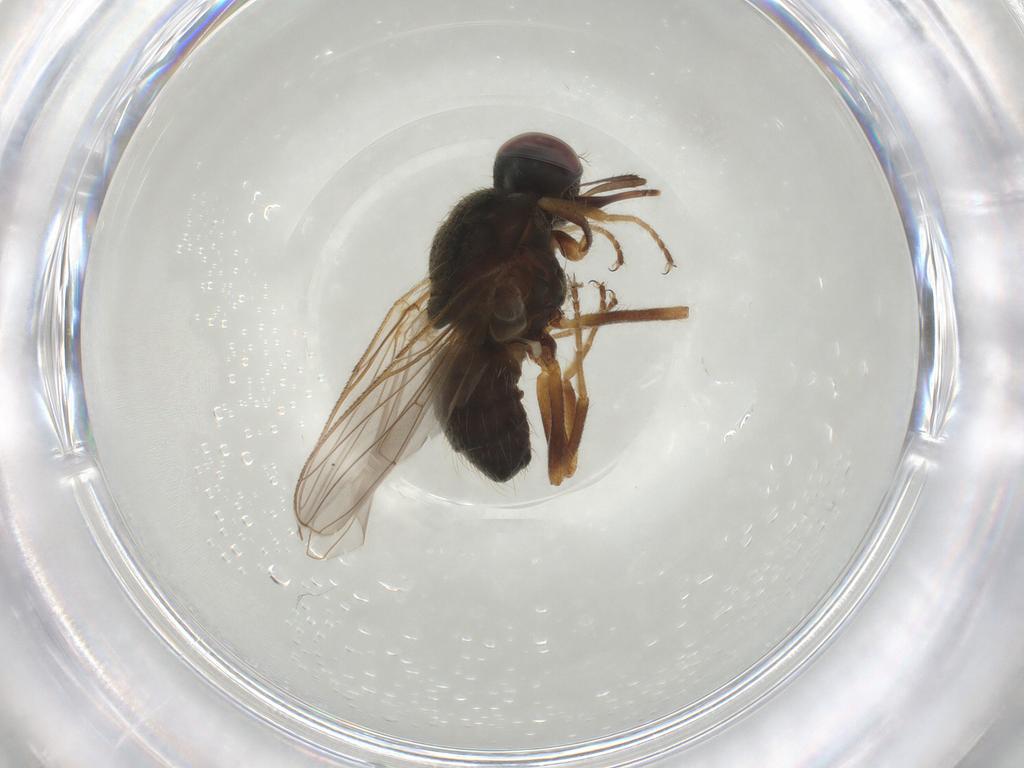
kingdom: Animalia
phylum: Arthropoda
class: Insecta
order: Diptera
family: Muscidae
